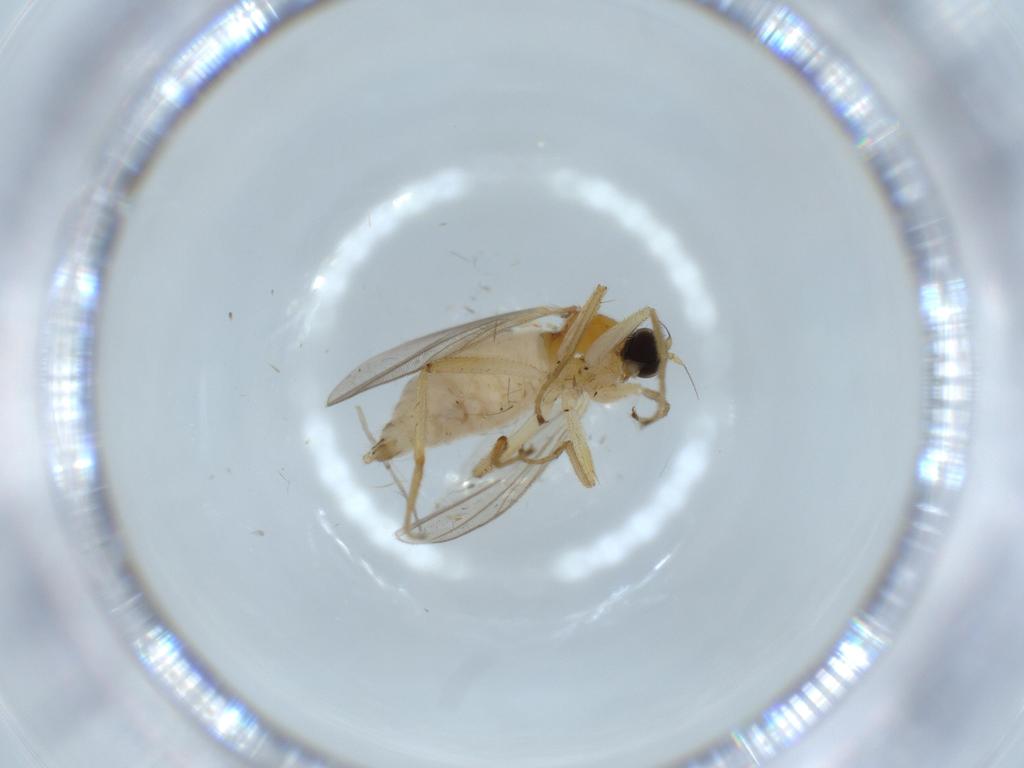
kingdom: Animalia
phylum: Arthropoda
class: Insecta
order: Diptera
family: Hybotidae
